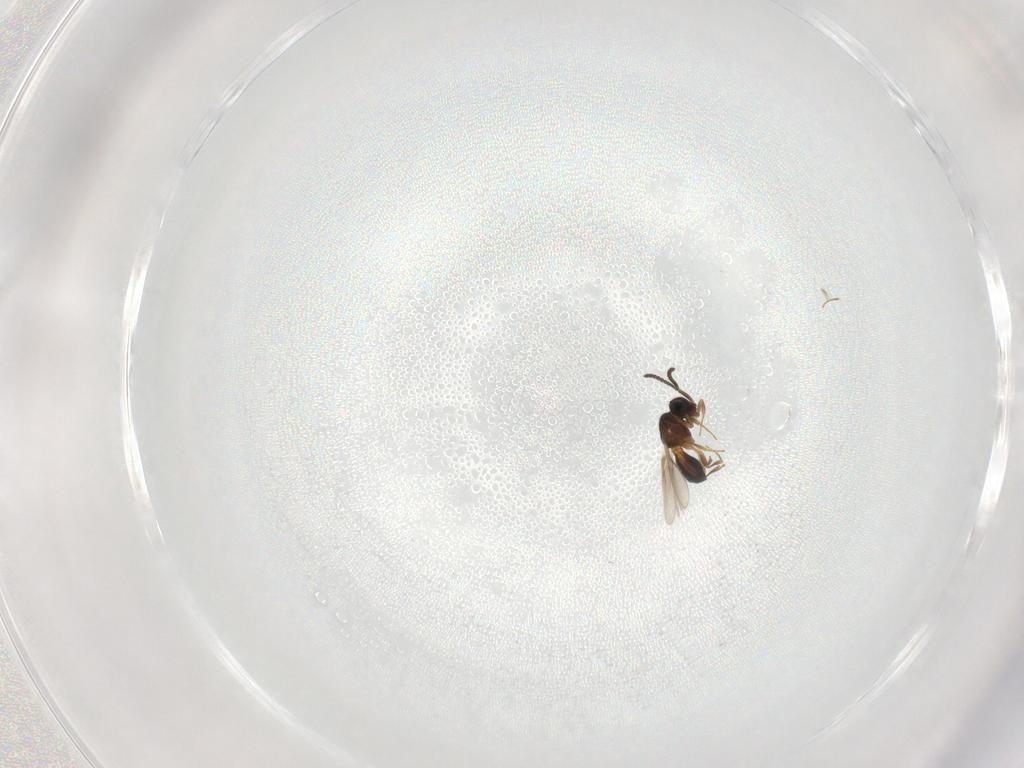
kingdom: Animalia
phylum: Arthropoda
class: Insecta
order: Hymenoptera
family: Scelionidae
